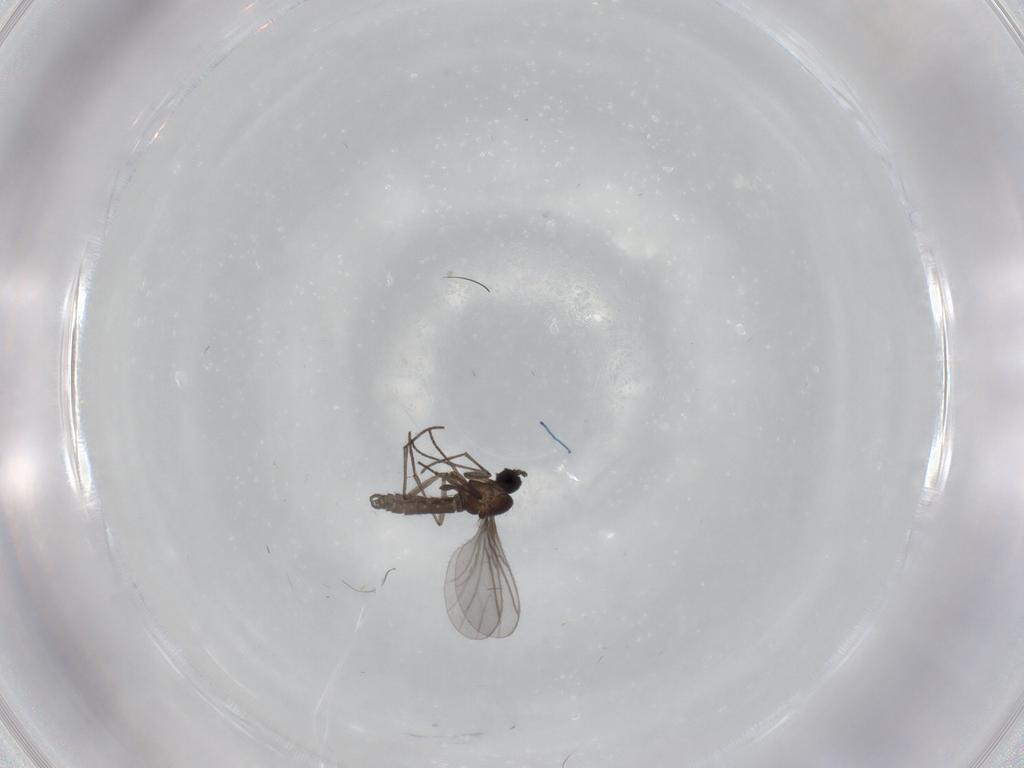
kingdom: Animalia
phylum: Arthropoda
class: Insecta
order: Diptera
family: Sciaridae
